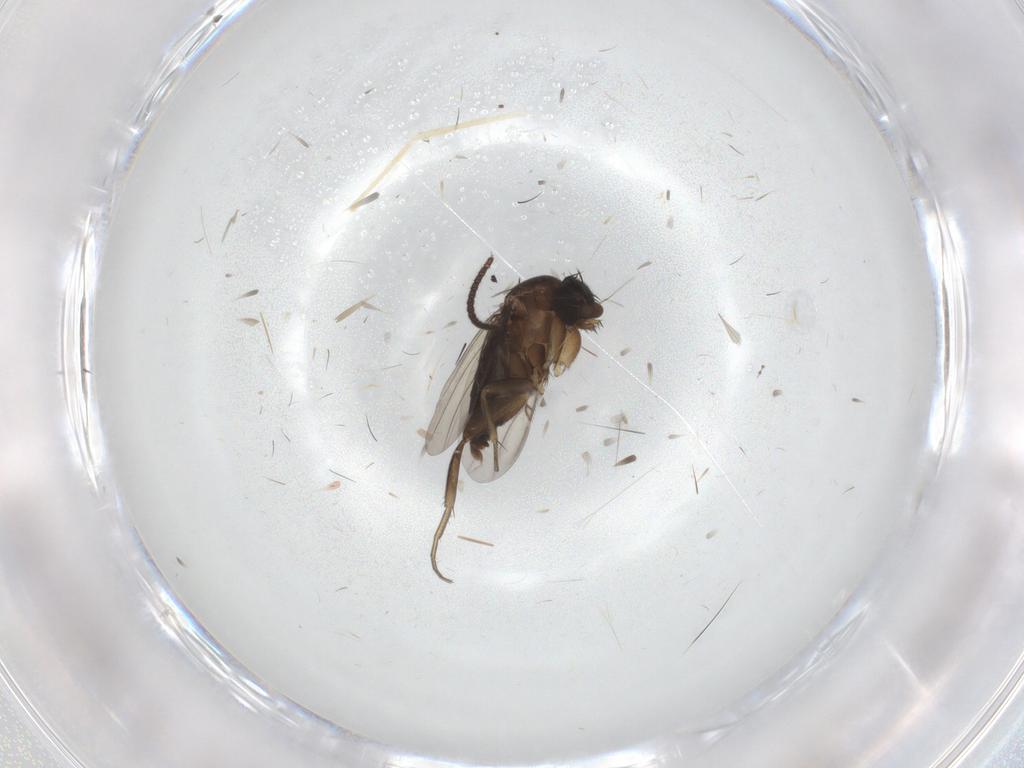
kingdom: Animalia
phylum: Arthropoda
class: Insecta
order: Diptera
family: Phoridae
